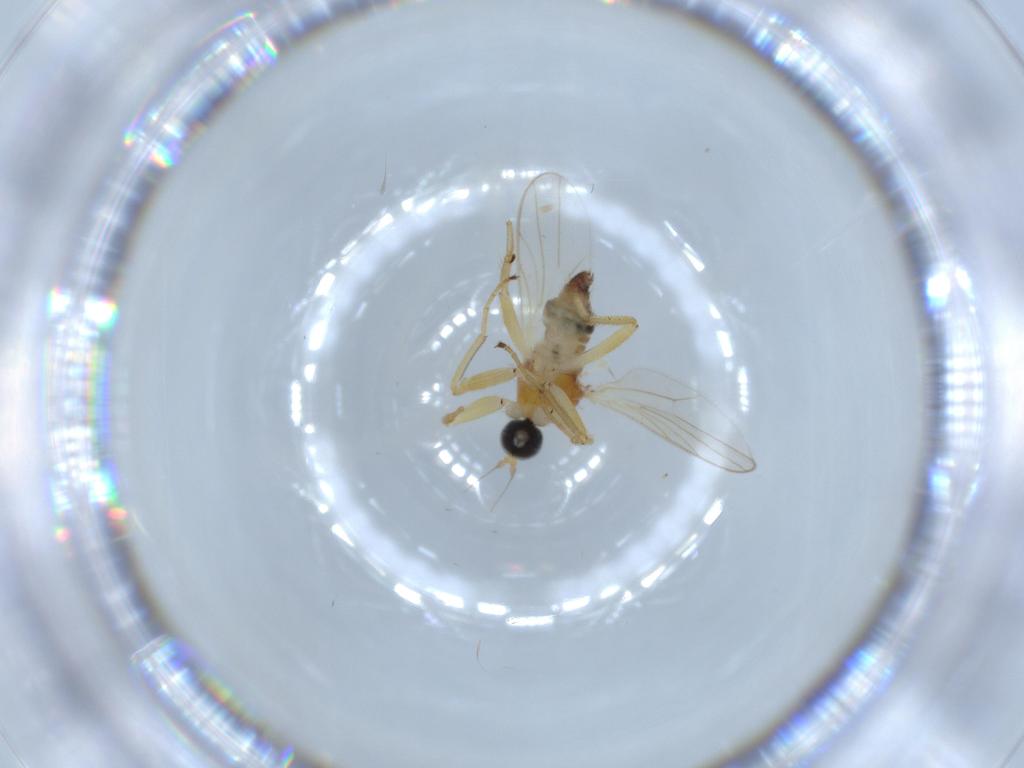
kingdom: Animalia
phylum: Arthropoda
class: Insecta
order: Diptera
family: Hybotidae
